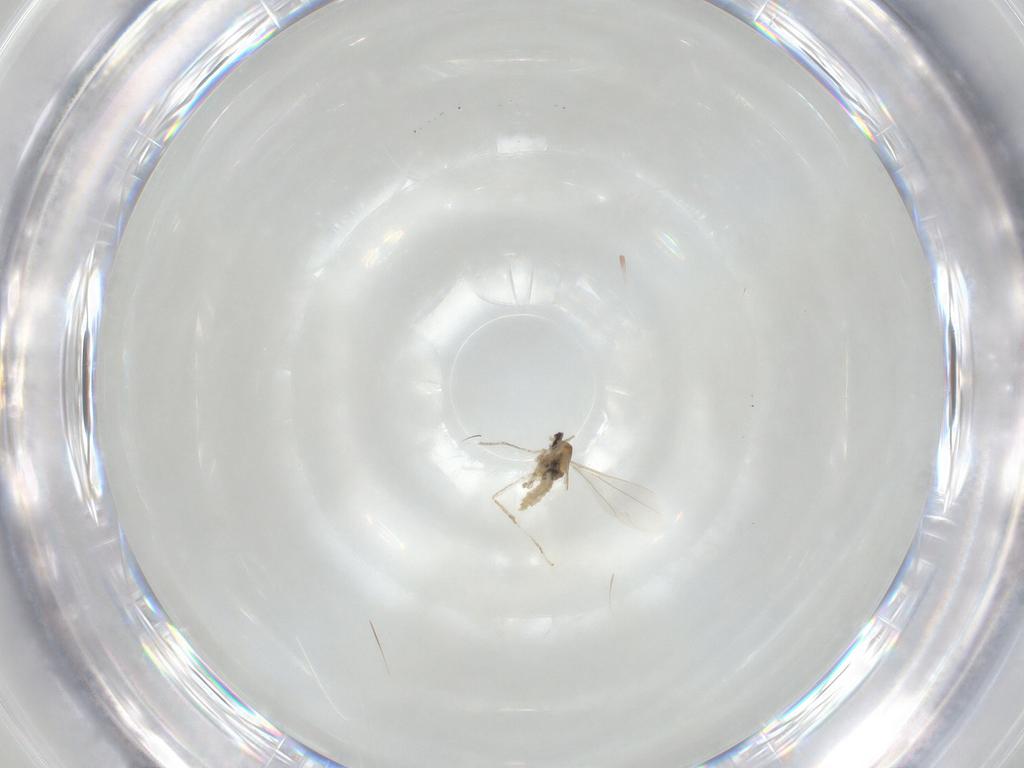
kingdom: Animalia
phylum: Arthropoda
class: Insecta
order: Diptera
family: Cecidomyiidae
